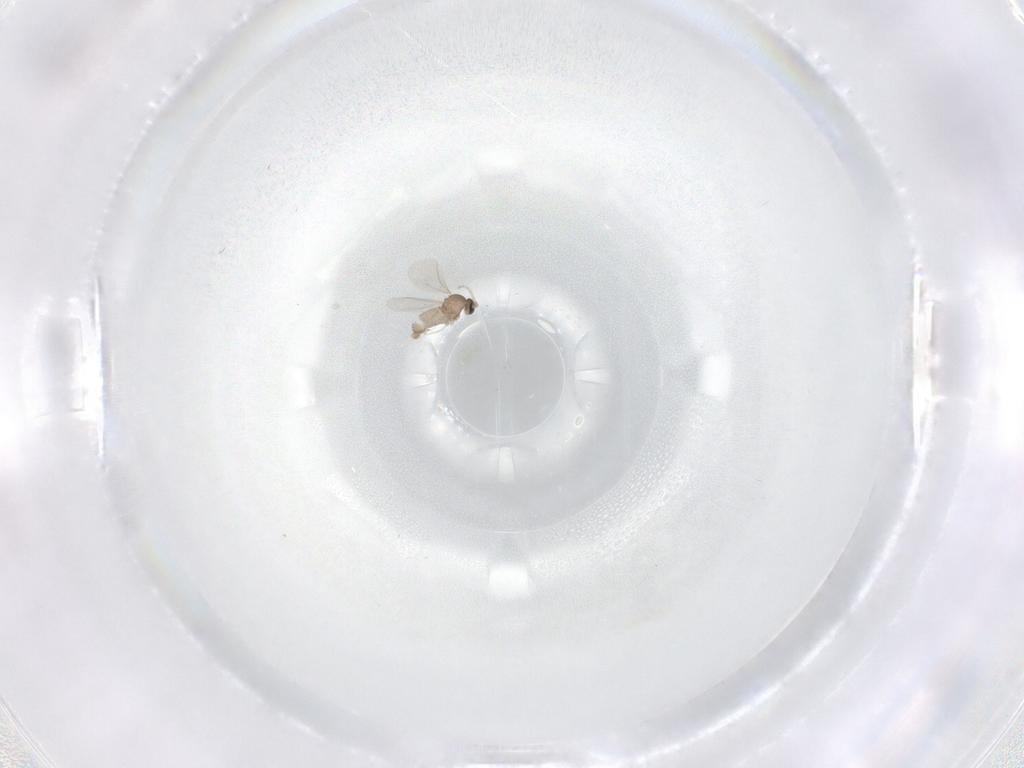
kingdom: Animalia
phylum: Arthropoda
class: Insecta
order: Diptera
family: Cecidomyiidae
